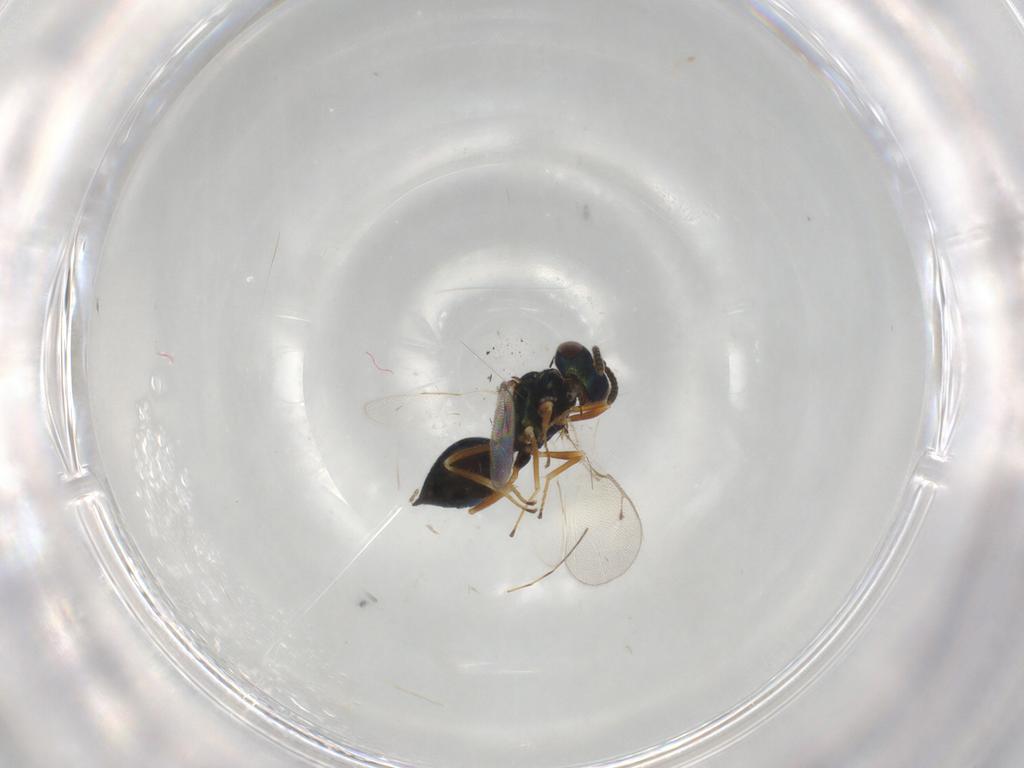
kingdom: Animalia
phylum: Arthropoda
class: Insecta
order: Hymenoptera
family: Pteromalidae
